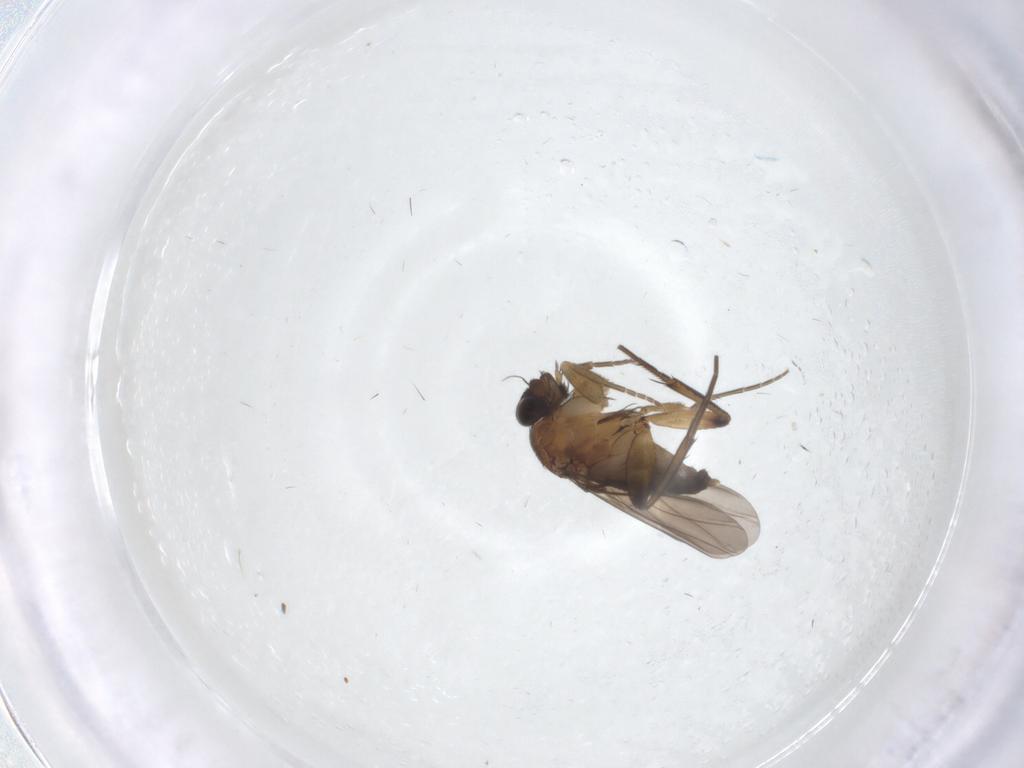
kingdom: Animalia
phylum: Arthropoda
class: Insecta
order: Diptera
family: Phoridae
